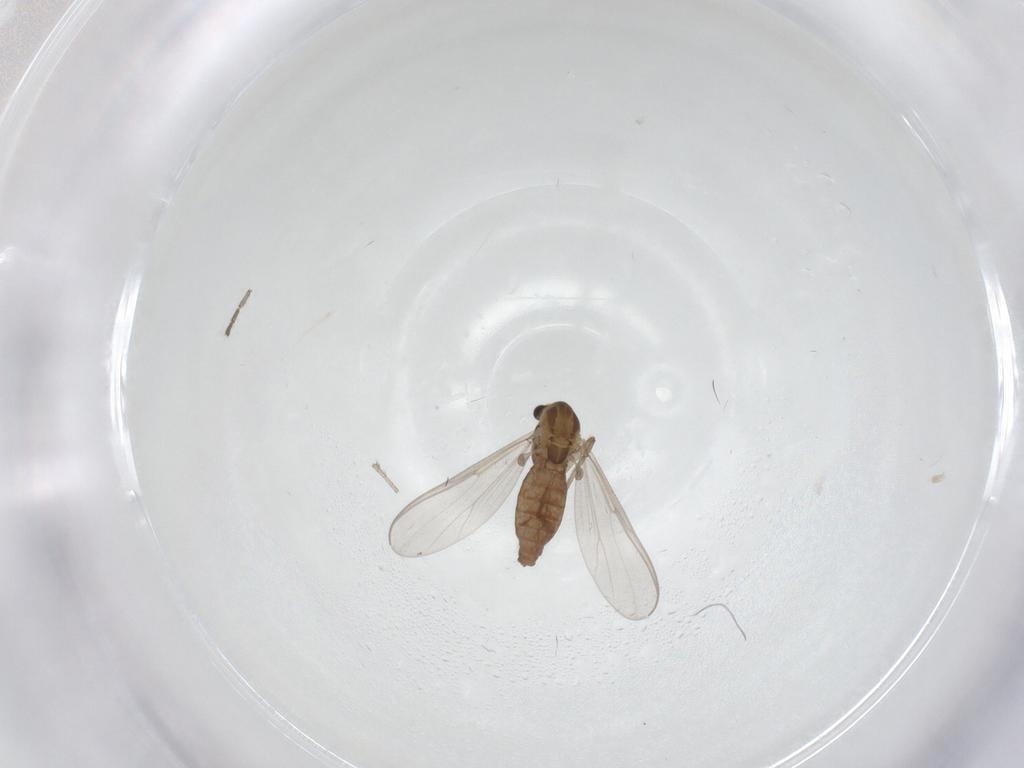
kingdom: Animalia
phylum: Arthropoda
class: Insecta
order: Diptera
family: Chironomidae
